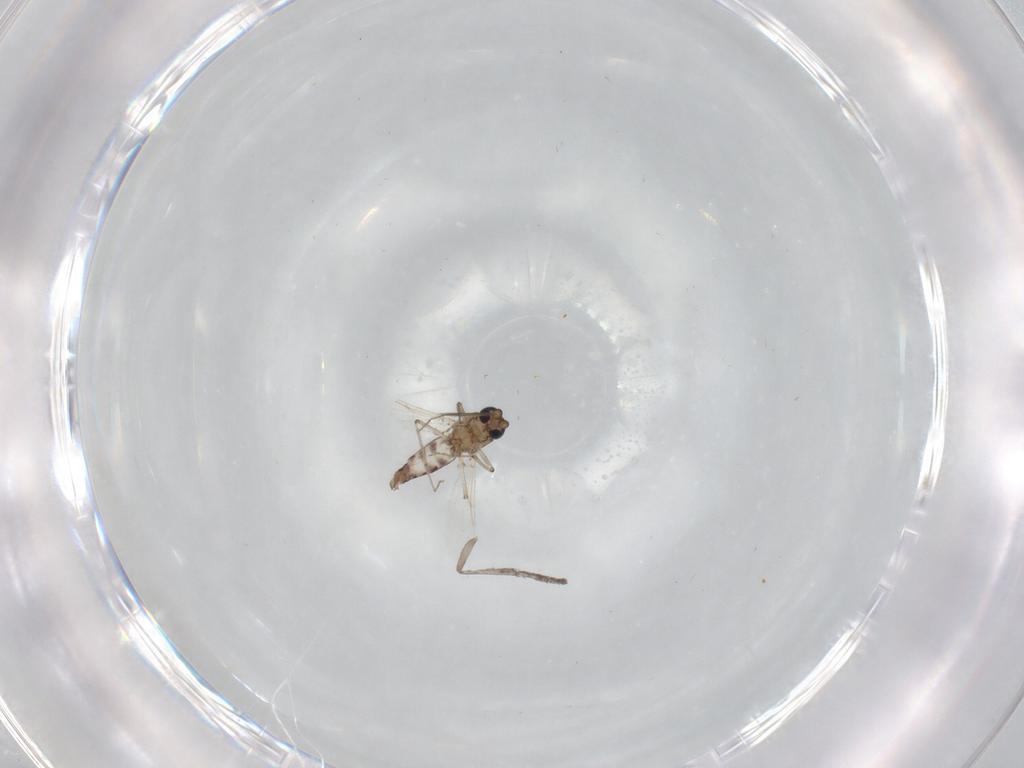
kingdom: Animalia
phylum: Arthropoda
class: Insecta
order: Diptera
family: Ceratopogonidae
